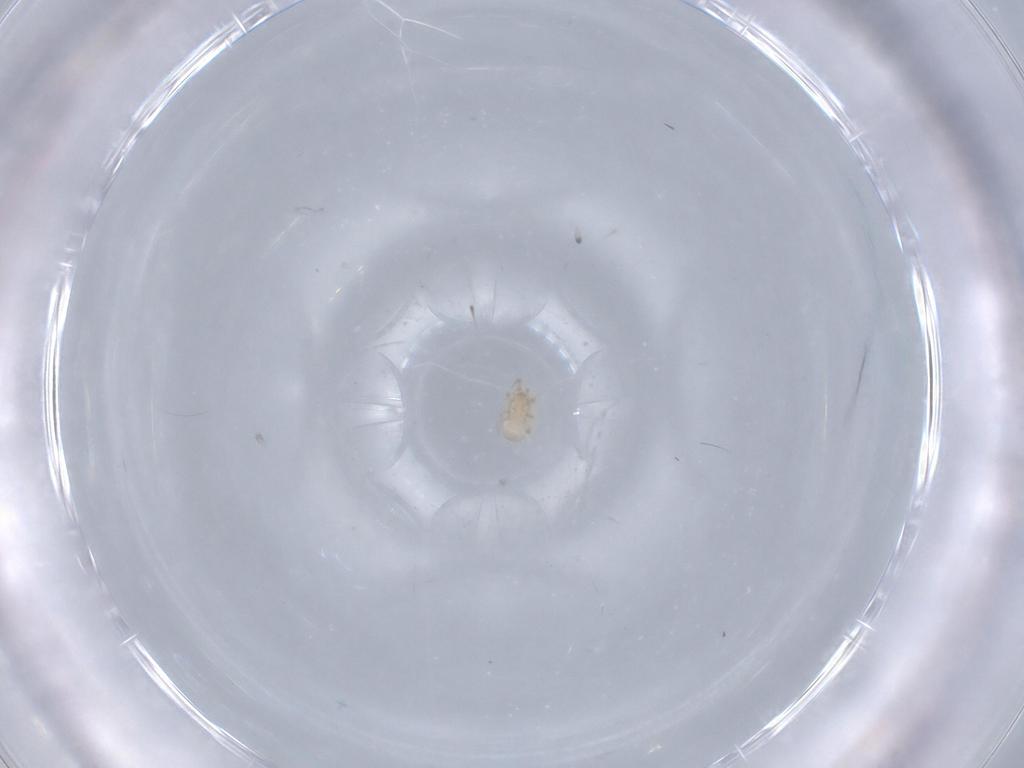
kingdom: Animalia
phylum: Arthropoda
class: Arachnida
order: Mesostigmata
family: Ascidae
